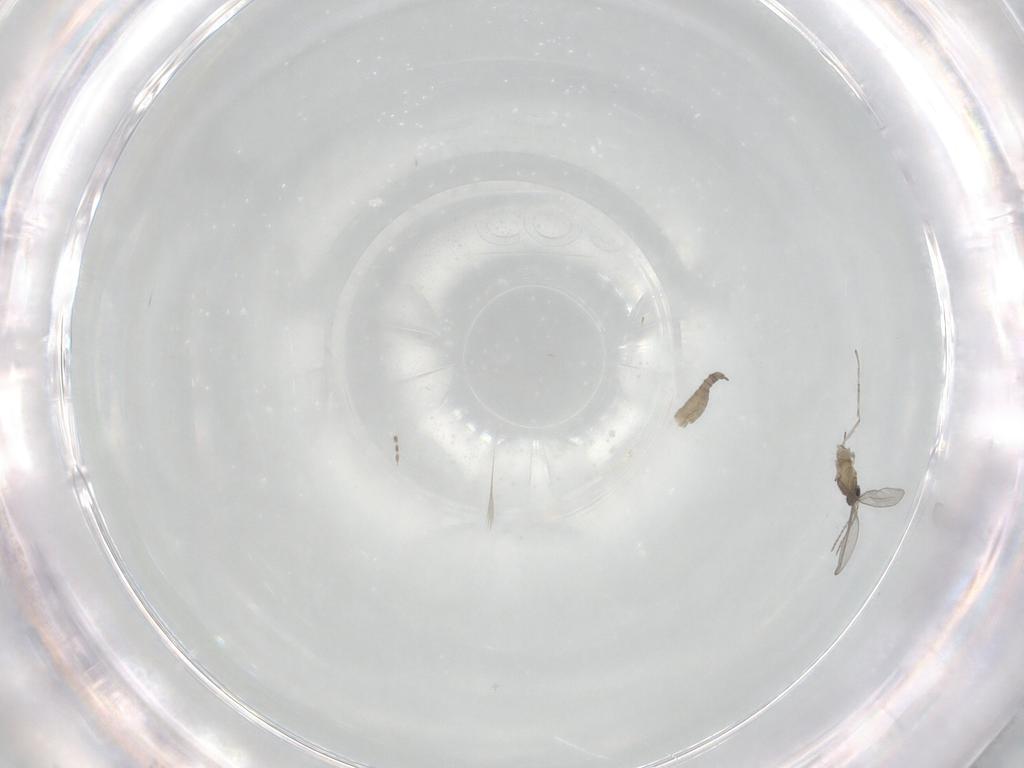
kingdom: Animalia
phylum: Arthropoda
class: Insecta
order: Diptera
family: Cecidomyiidae
